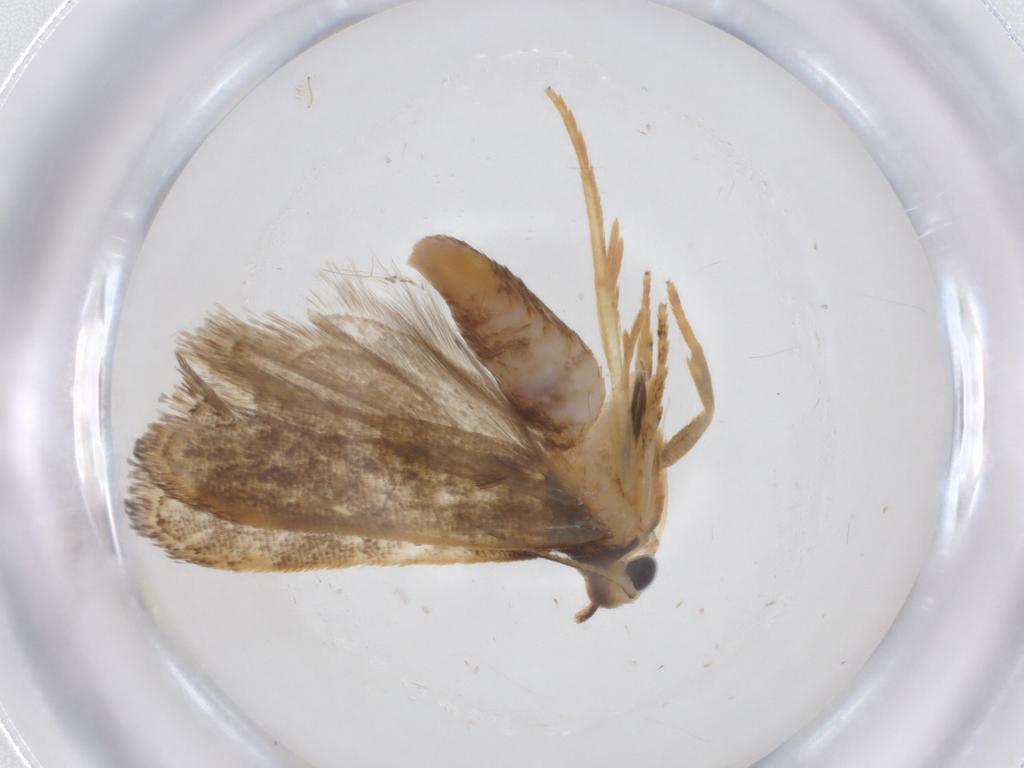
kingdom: Animalia
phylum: Arthropoda
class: Insecta
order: Lepidoptera
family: Gelechiidae
